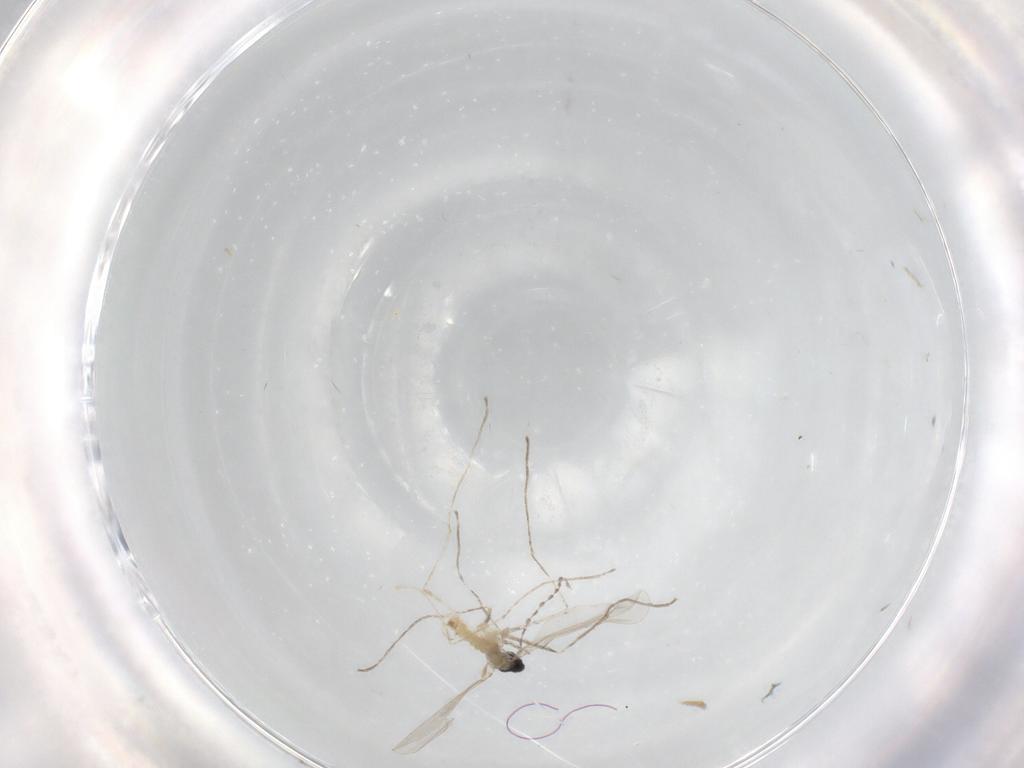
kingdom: Animalia
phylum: Arthropoda
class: Insecta
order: Diptera
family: Cecidomyiidae
